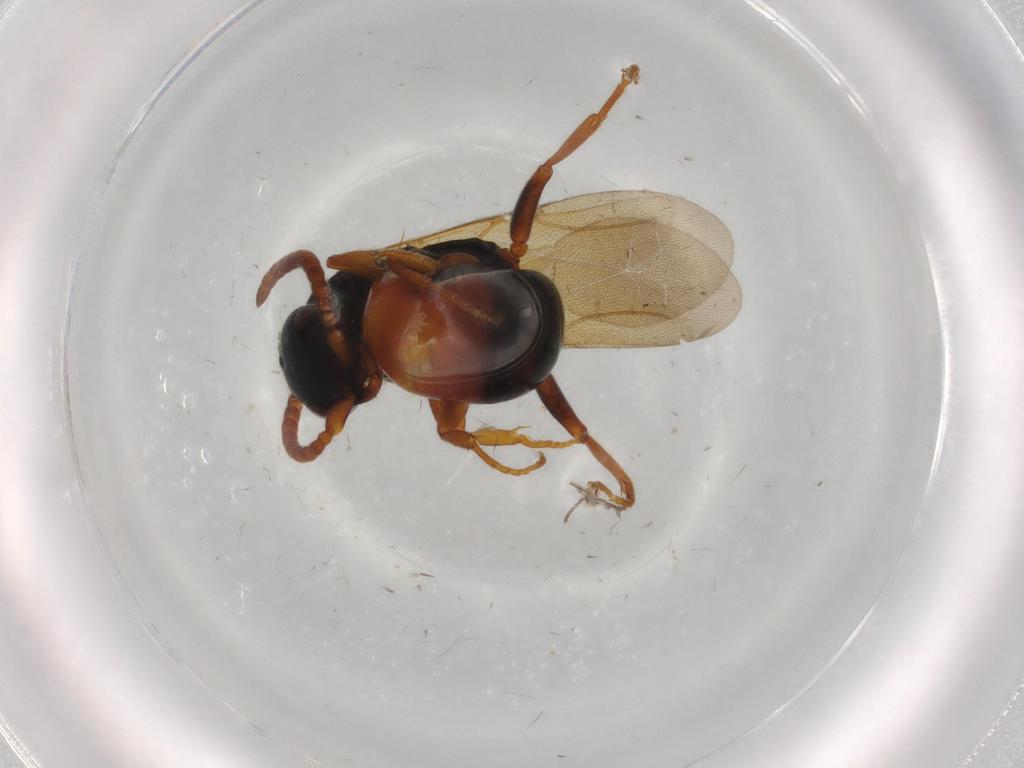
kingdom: Animalia
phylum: Arthropoda
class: Insecta
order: Hymenoptera
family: Bethylidae
